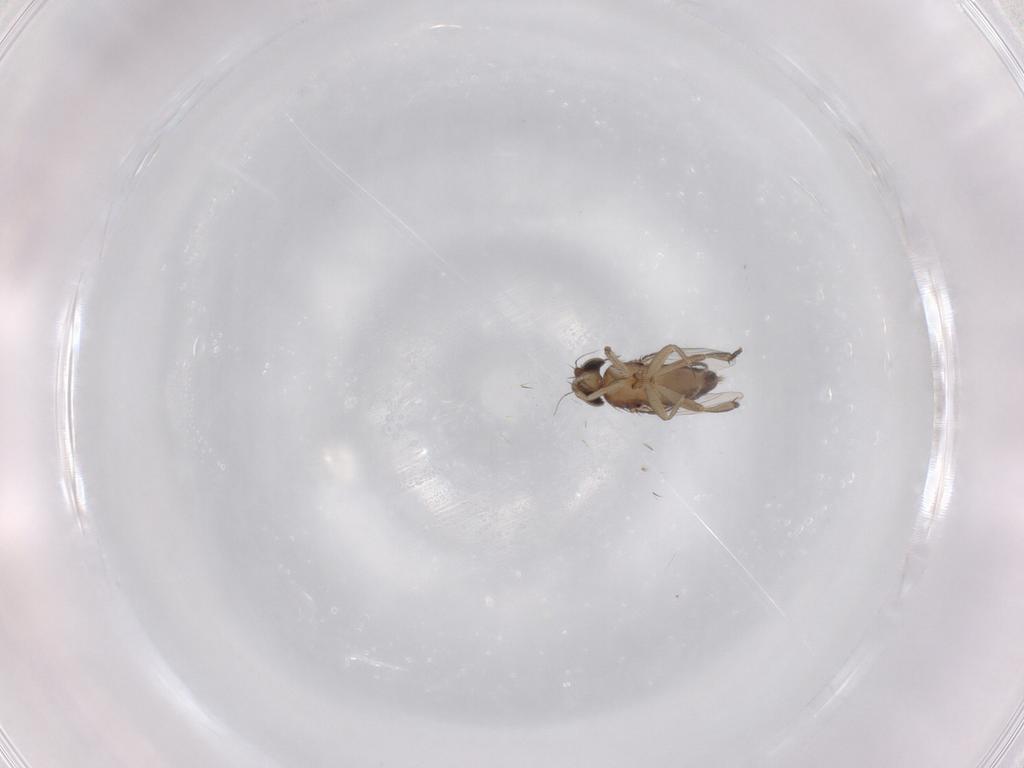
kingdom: Animalia
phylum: Arthropoda
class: Insecta
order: Diptera
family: Phoridae
